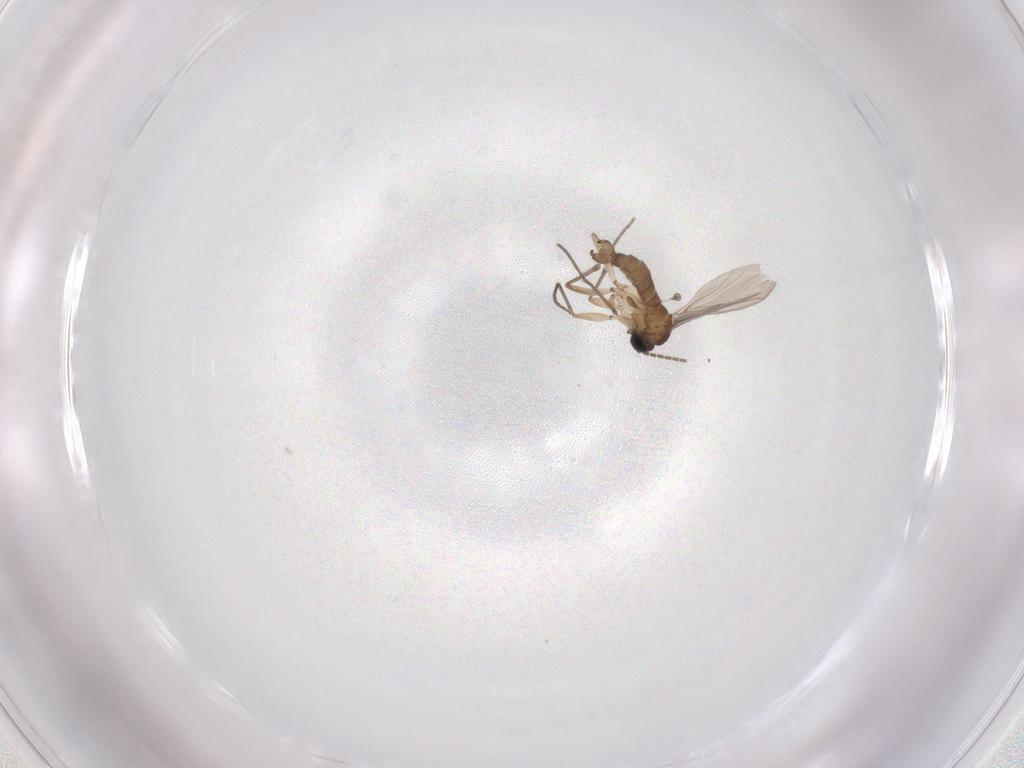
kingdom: Animalia
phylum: Arthropoda
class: Insecta
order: Diptera
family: Sciaridae
